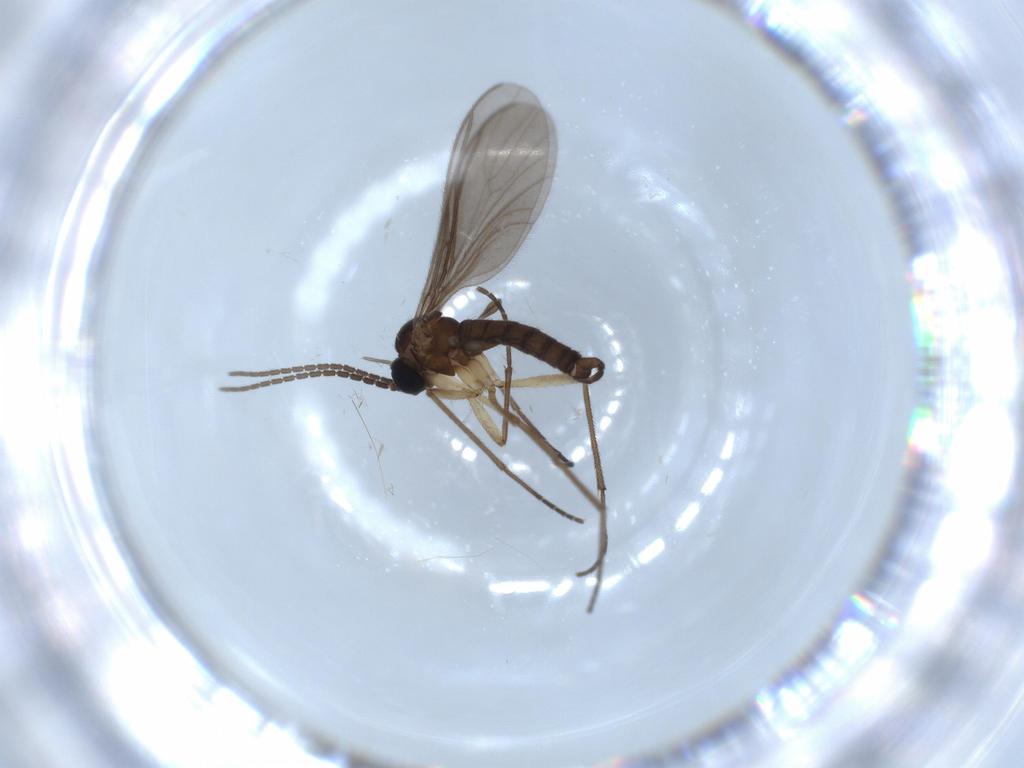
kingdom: Animalia
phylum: Arthropoda
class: Insecta
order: Diptera
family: Sciaridae
